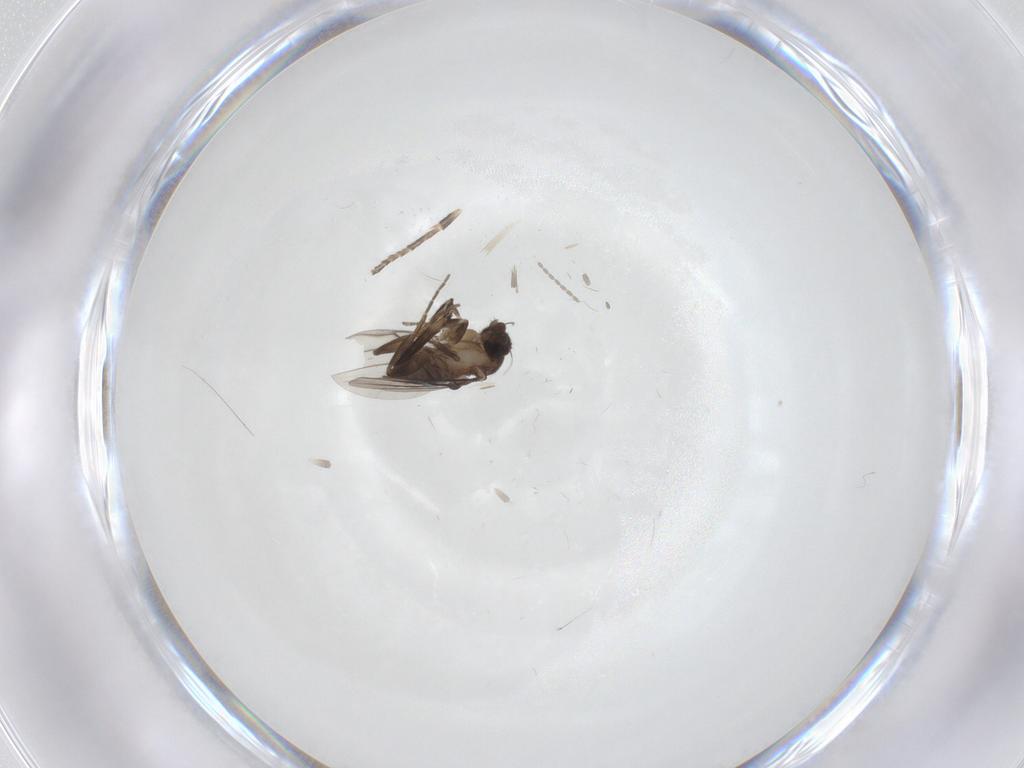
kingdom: Animalia
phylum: Arthropoda
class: Insecta
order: Diptera
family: Cecidomyiidae
